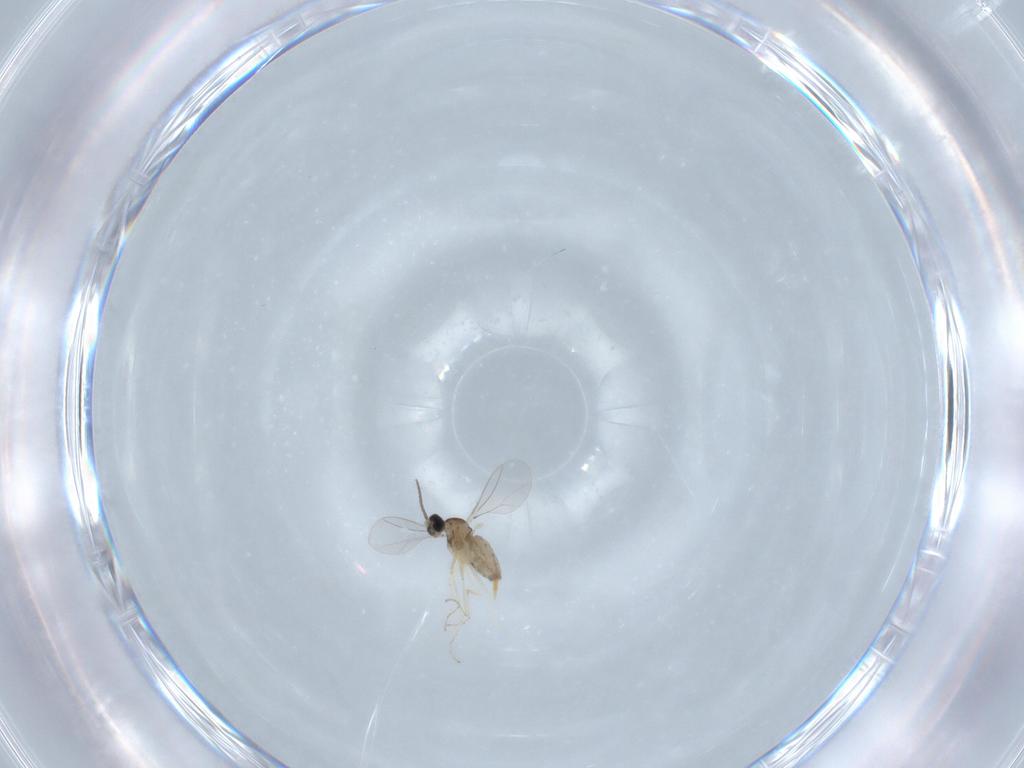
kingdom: Animalia
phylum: Arthropoda
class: Insecta
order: Diptera
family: Cecidomyiidae
